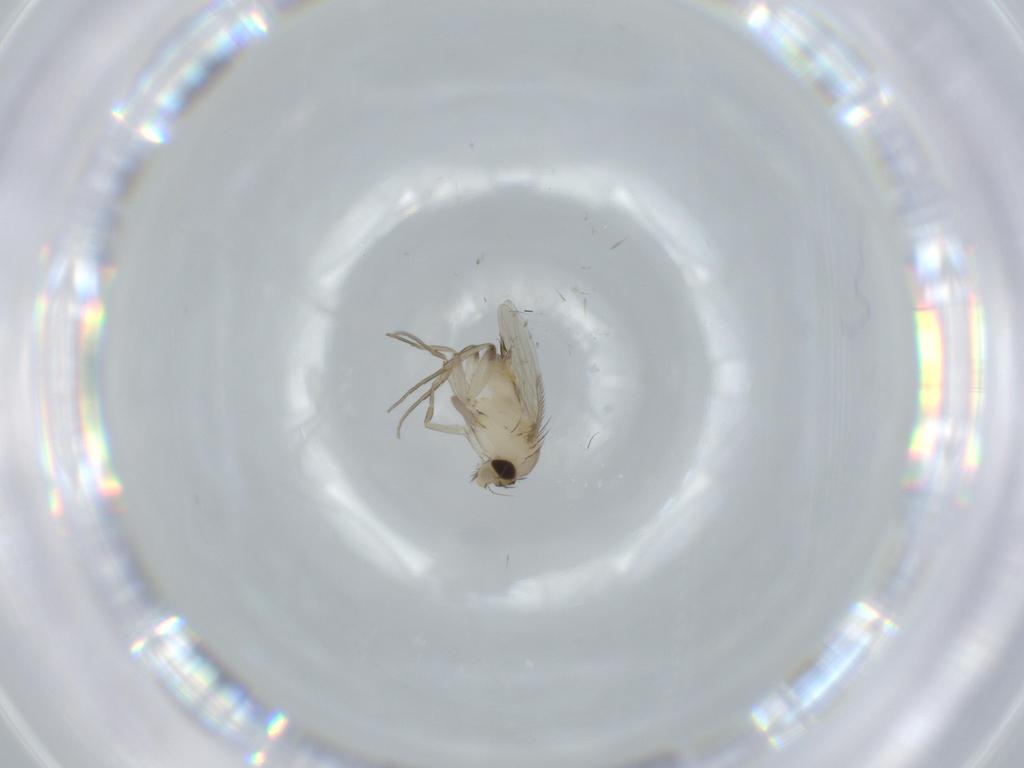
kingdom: Animalia
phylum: Arthropoda
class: Insecta
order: Diptera
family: Phoridae
